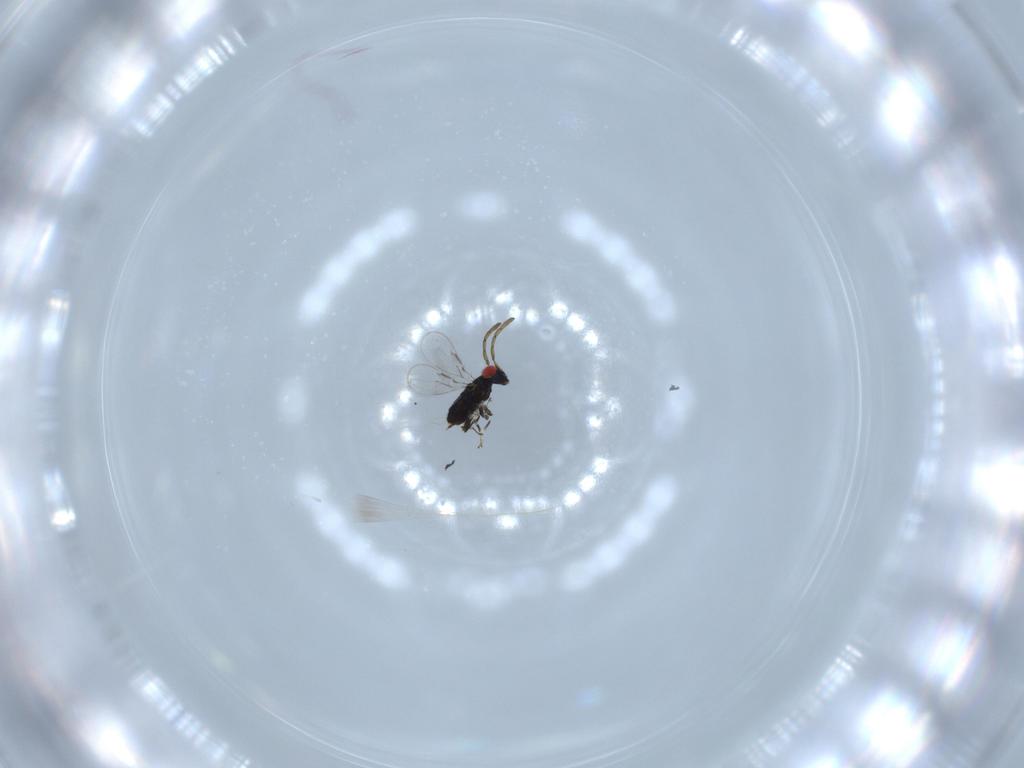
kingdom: Animalia
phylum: Arthropoda
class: Insecta
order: Hymenoptera
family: Azotidae
